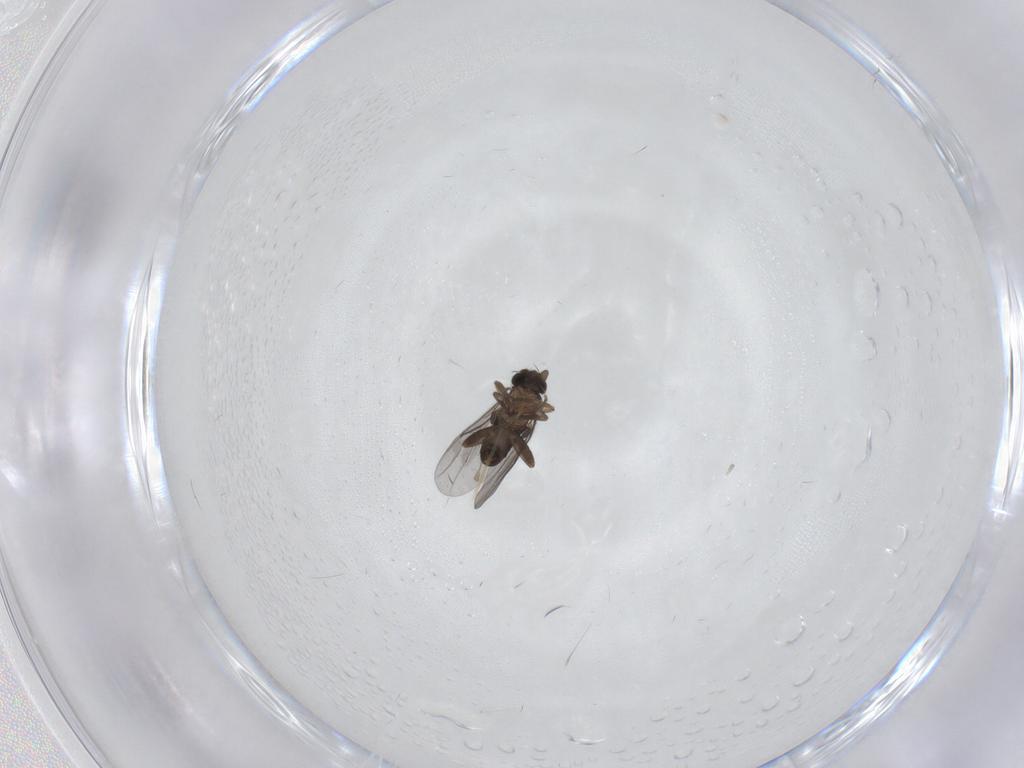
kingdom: Animalia
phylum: Arthropoda
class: Insecta
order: Diptera
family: Cecidomyiidae
